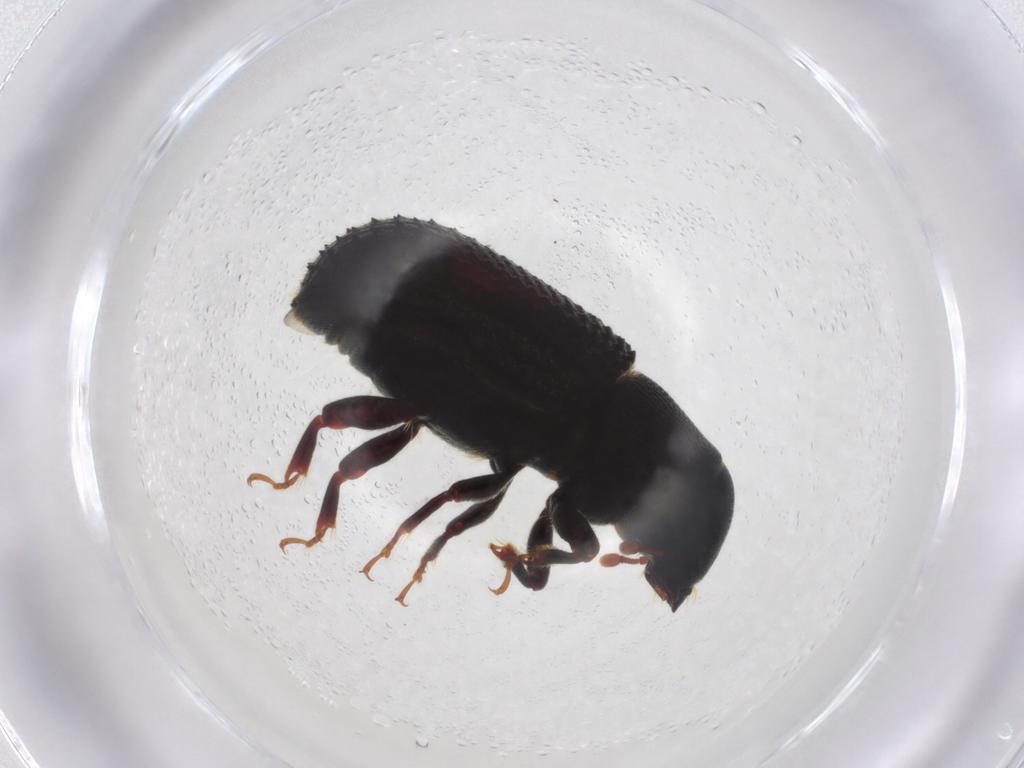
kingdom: Animalia
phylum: Arthropoda
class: Insecta
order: Coleoptera
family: Curculionidae
